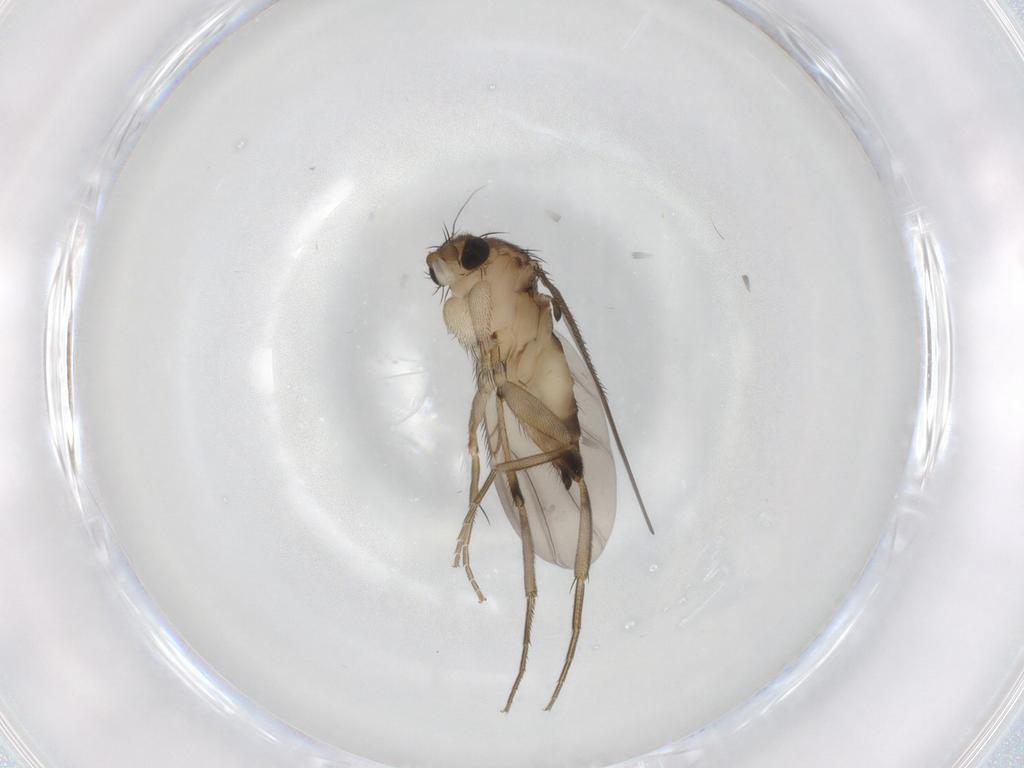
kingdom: Animalia
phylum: Arthropoda
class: Insecta
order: Diptera
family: Phoridae
